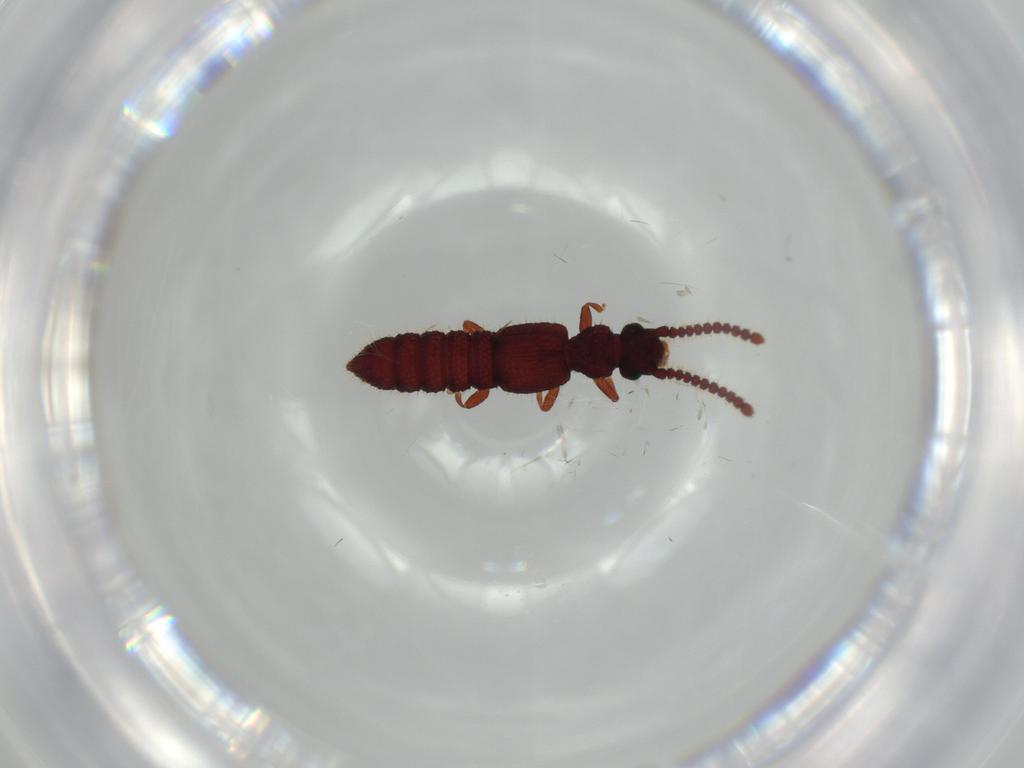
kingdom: Animalia
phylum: Arthropoda
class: Insecta
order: Diptera
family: Cecidomyiidae
